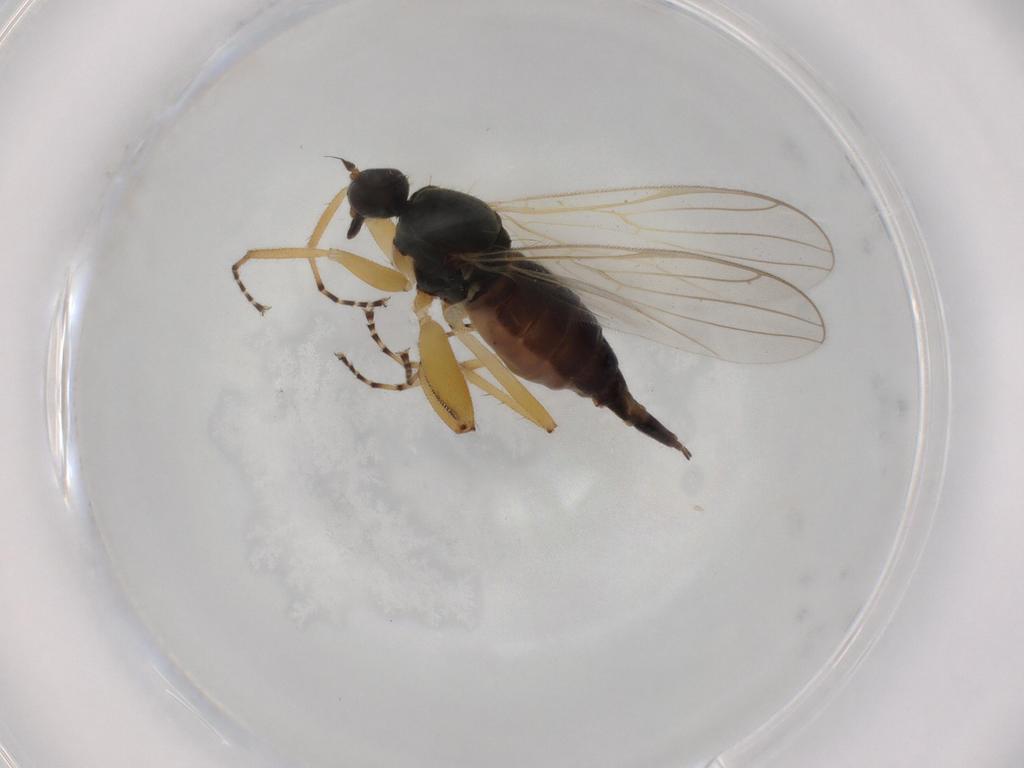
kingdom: Animalia
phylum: Arthropoda
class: Insecta
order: Diptera
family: Hybotidae
